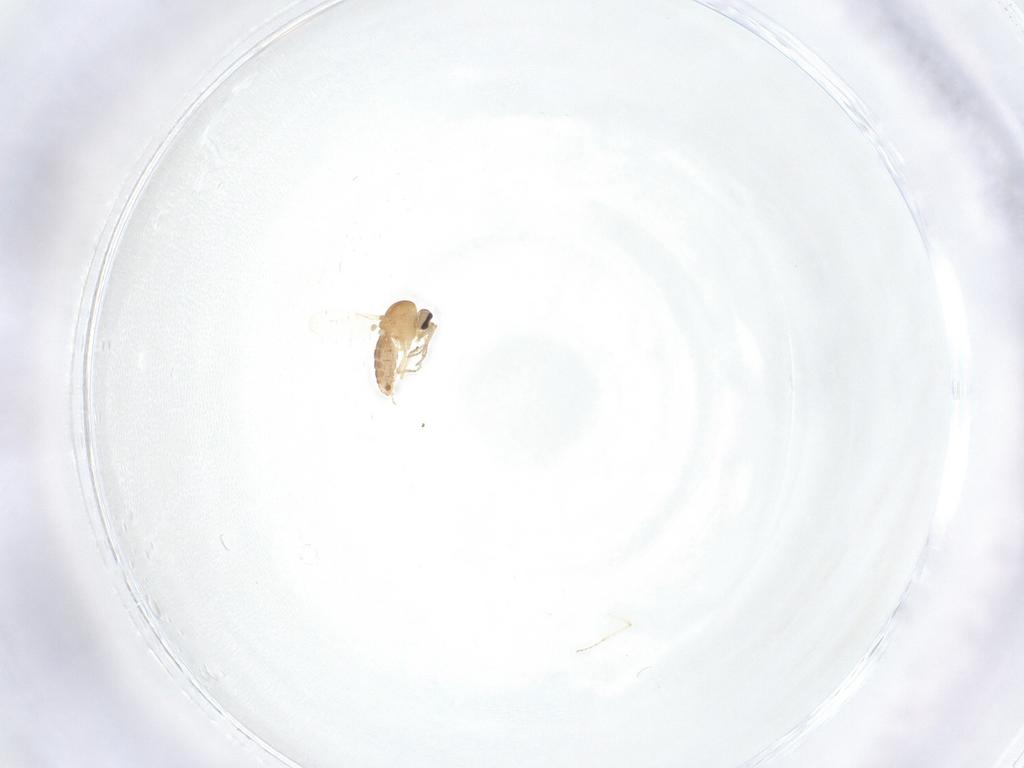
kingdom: Animalia
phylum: Arthropoda
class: Insecta
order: Diptera
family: Ceratopogonidae
